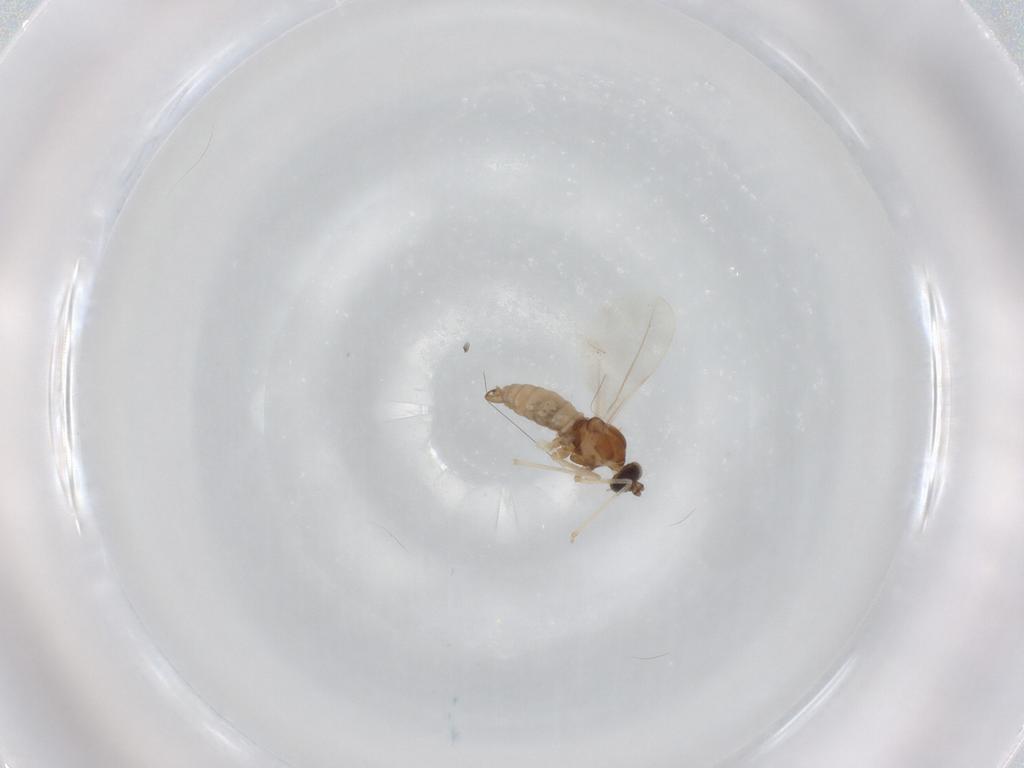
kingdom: Animalia
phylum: Arthropoda
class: Insecta
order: Diptera
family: Cecidomyiidae
